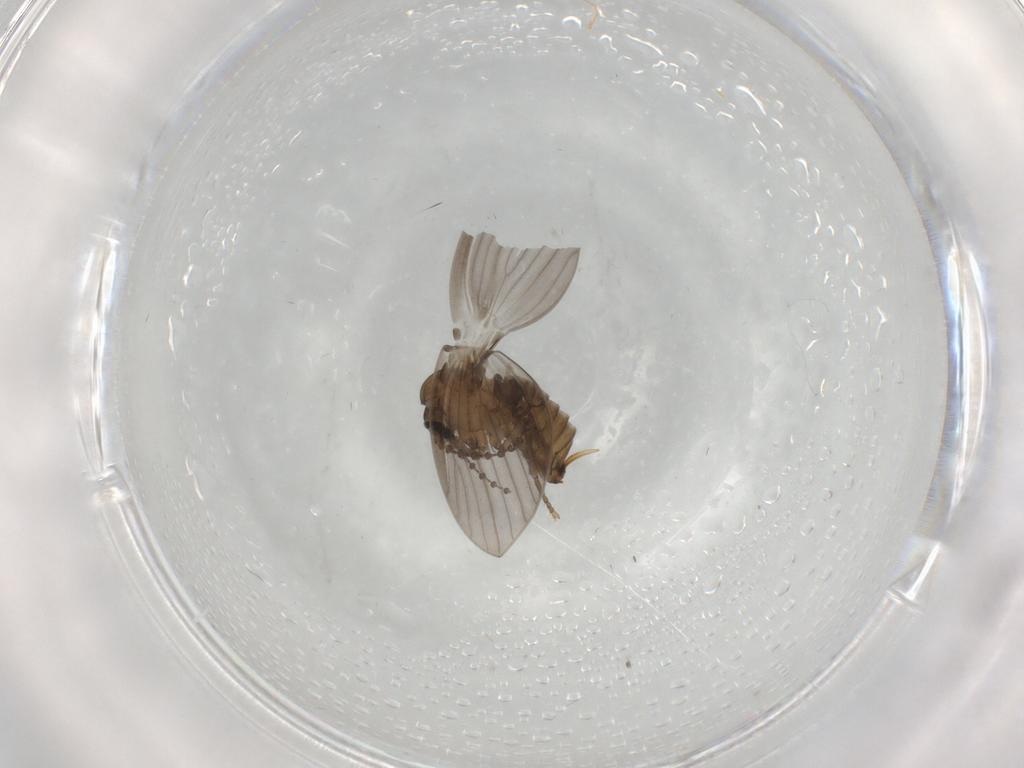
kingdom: Animalia
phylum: Arthropoda
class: Insecta
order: Diptera
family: Psychodidae
